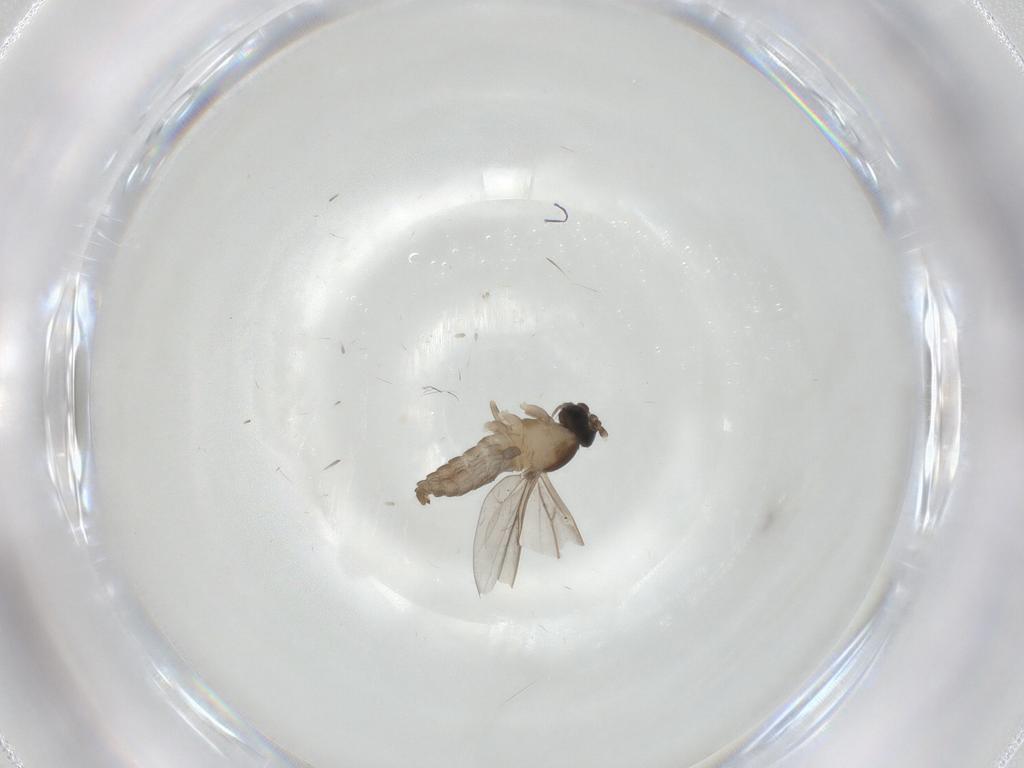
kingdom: Animalia
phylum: Arthropoda
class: Insecta
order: Diptera
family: Cecidomyiidae
